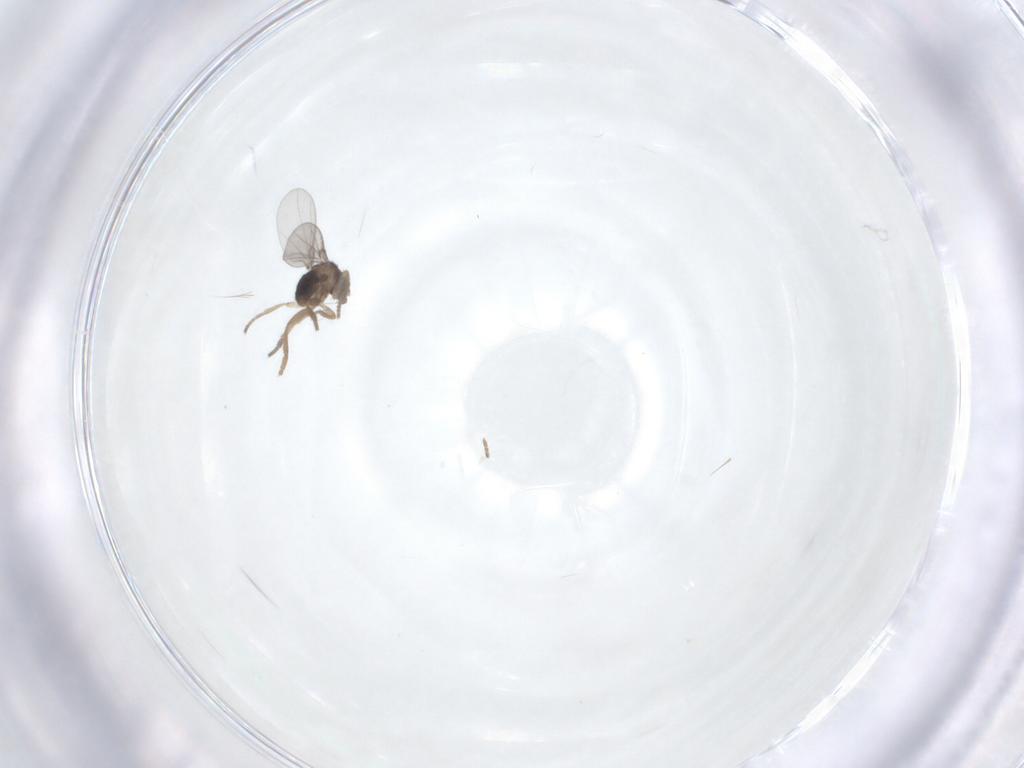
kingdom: Animalia
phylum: Arthropoda
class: Insecta
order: Diptera
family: Phoridae
